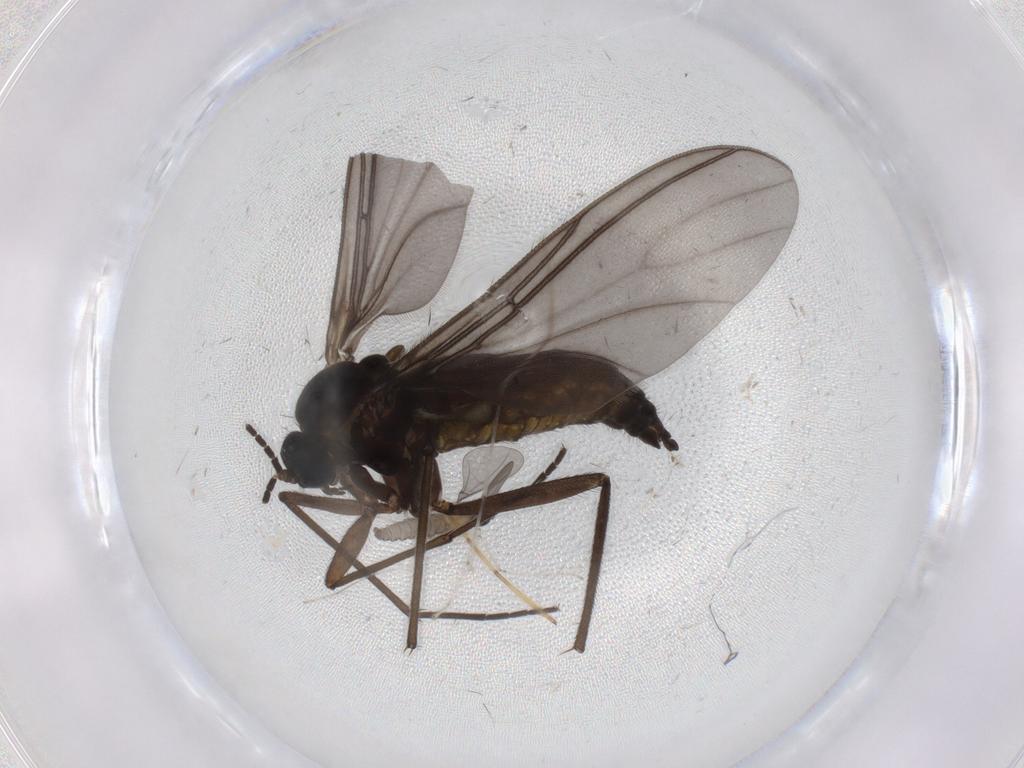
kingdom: Animalia
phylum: Arthropoda
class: Insecta
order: Diptera
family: Sciaridae
